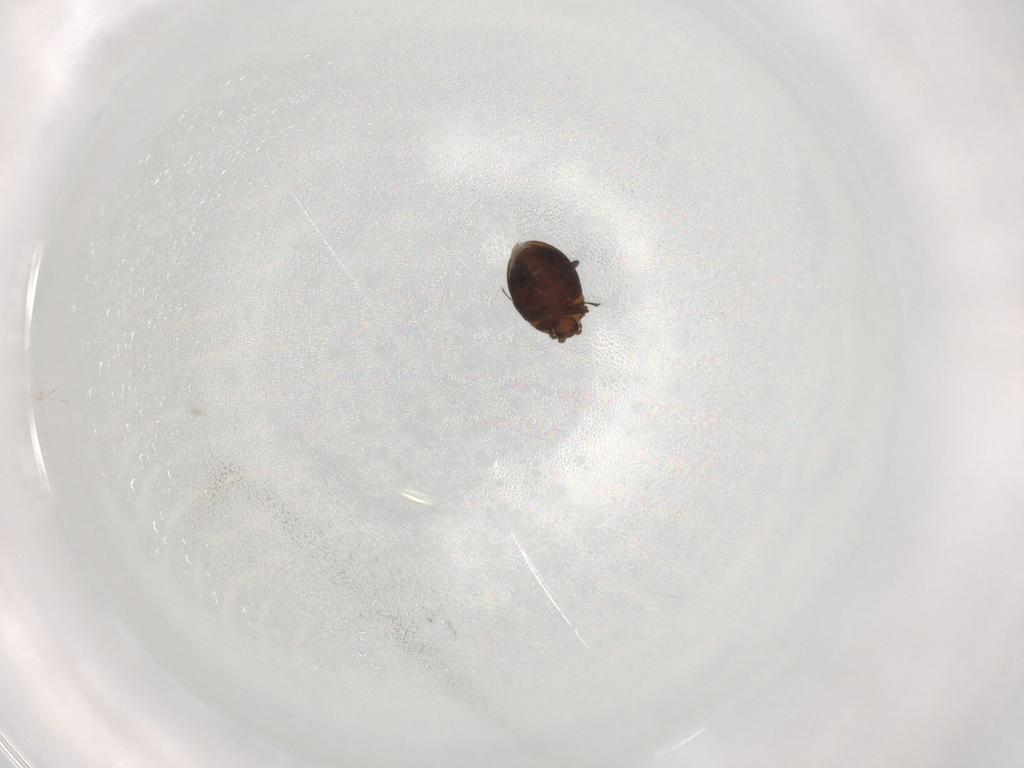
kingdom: Animalia
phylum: Arthropoda
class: Insecta
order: Coleoptera
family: Corylophidae
